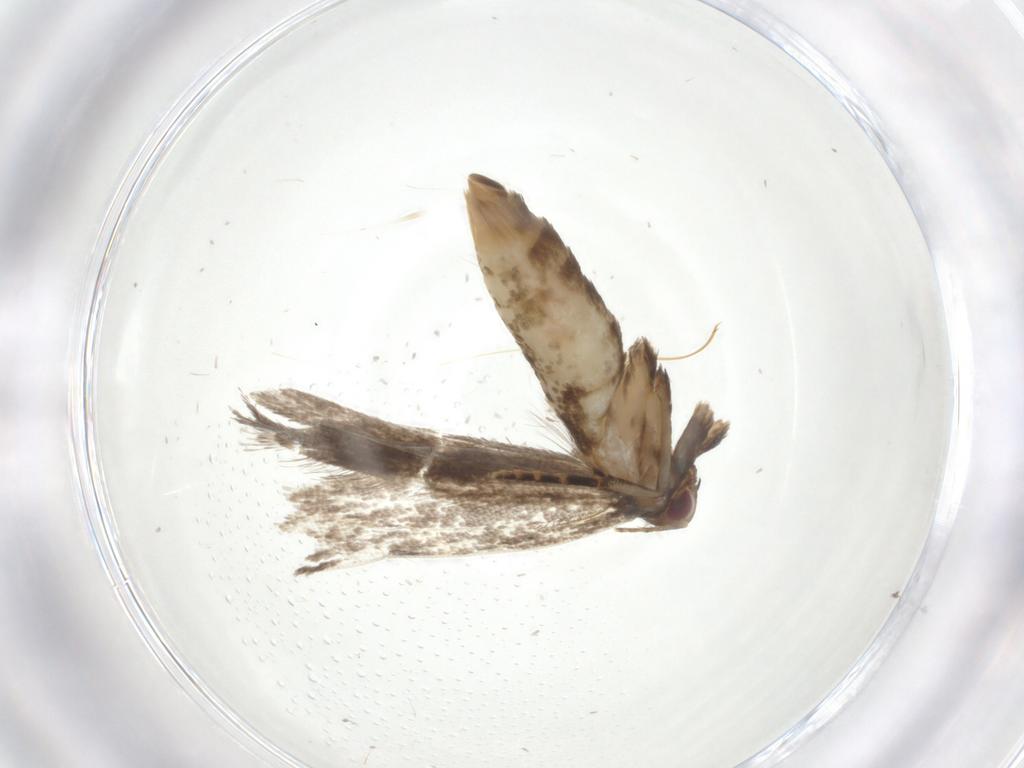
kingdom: Animalia
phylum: Arthropoda
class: Insecta
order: Lepidoptera
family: Gelechiidae
